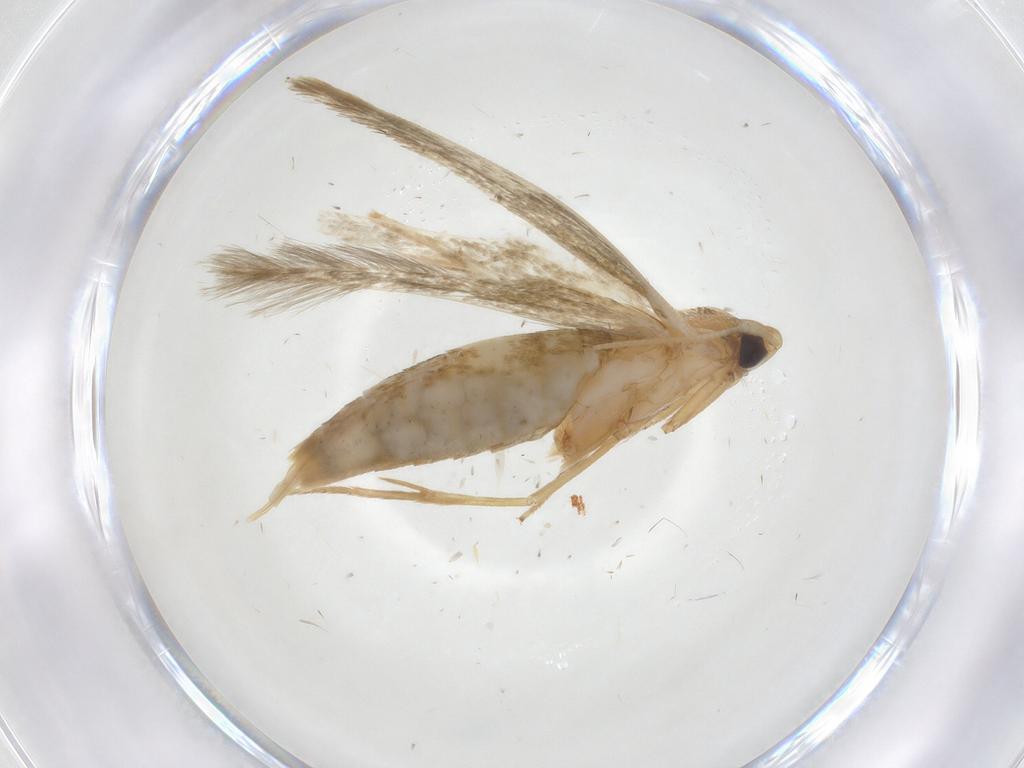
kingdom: Animalia
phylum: Arthropoda
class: Insecta
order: Lepidoptera
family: Tineidae
